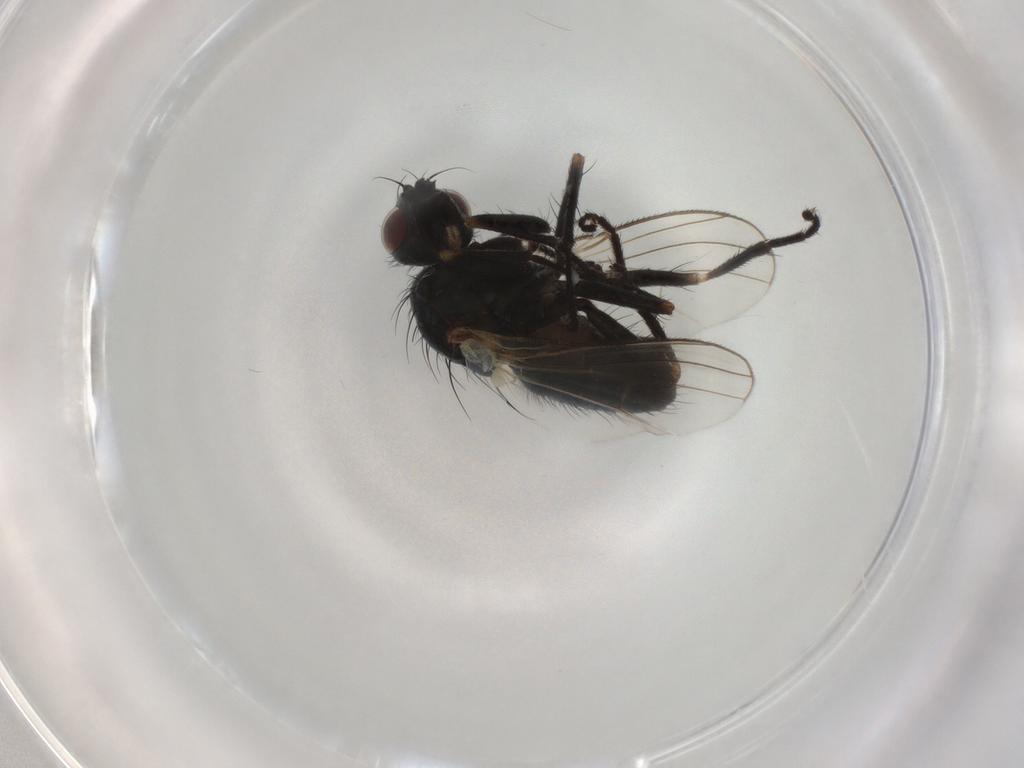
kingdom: Animalia
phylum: Arthropoda
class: Insecta
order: Diptera
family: Muscidae
